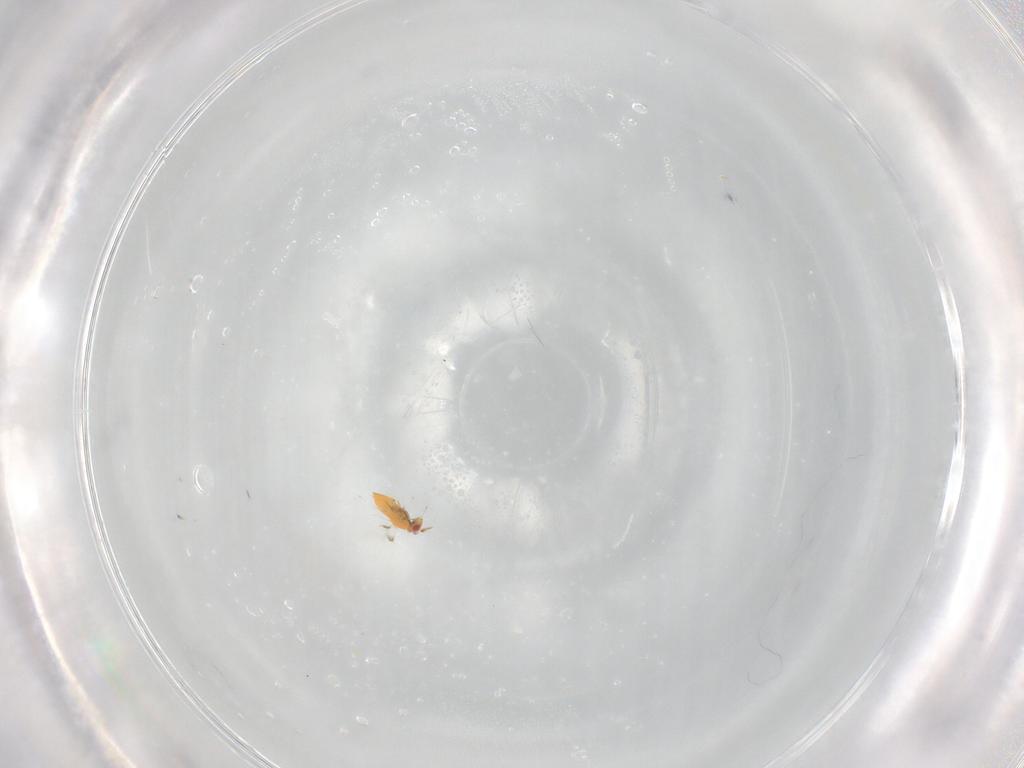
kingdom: Animalia
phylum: Arthropoda
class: Insecta
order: Hymenoptera
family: Trichogrammatidae
